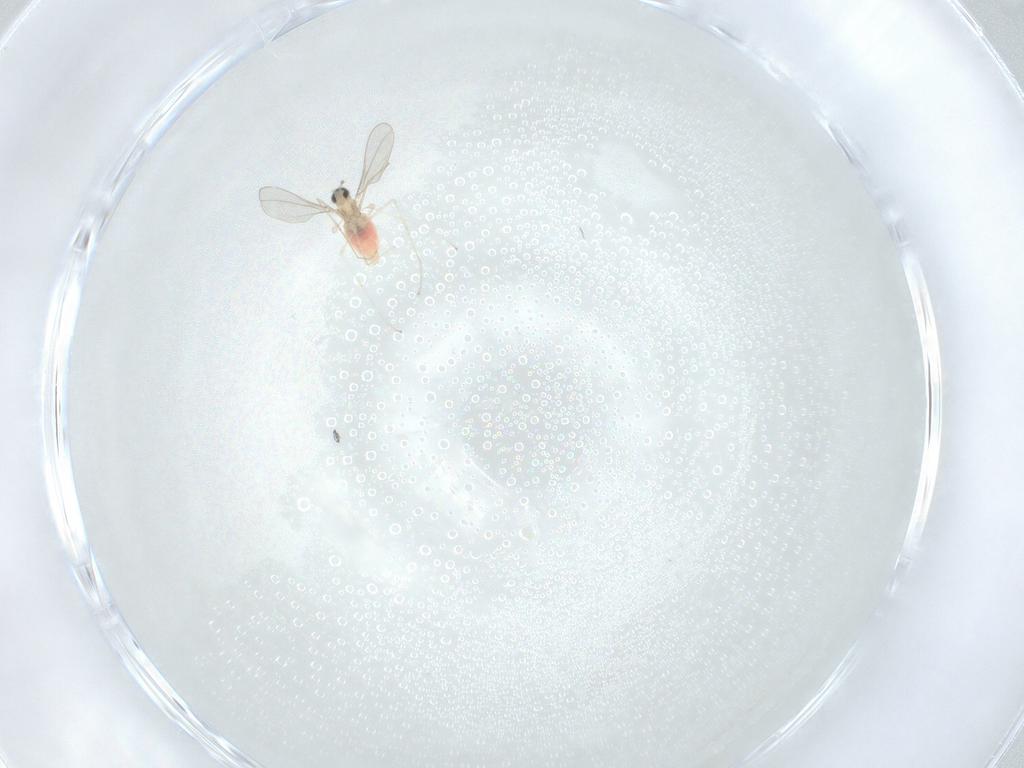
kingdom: Animalia
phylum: Arthropoda
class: Insecta
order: Diptera
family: Cecidomyiidae
